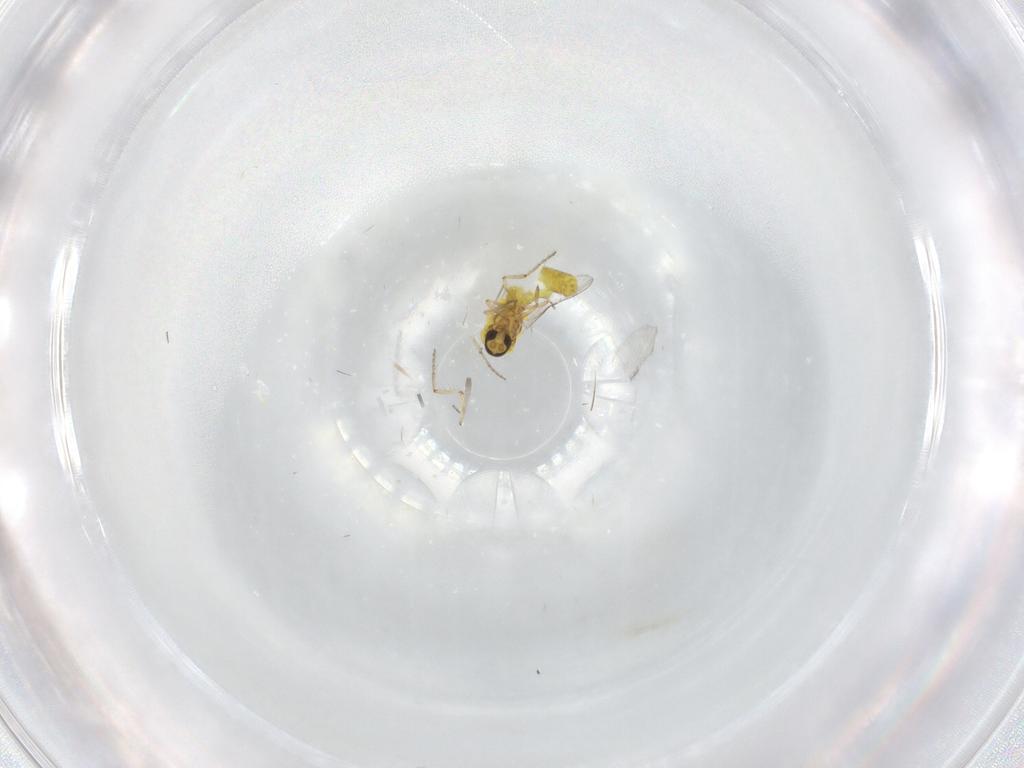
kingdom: Animalia
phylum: Arthropoda
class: Insecta
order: Diptera
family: Ceratopogonidae
